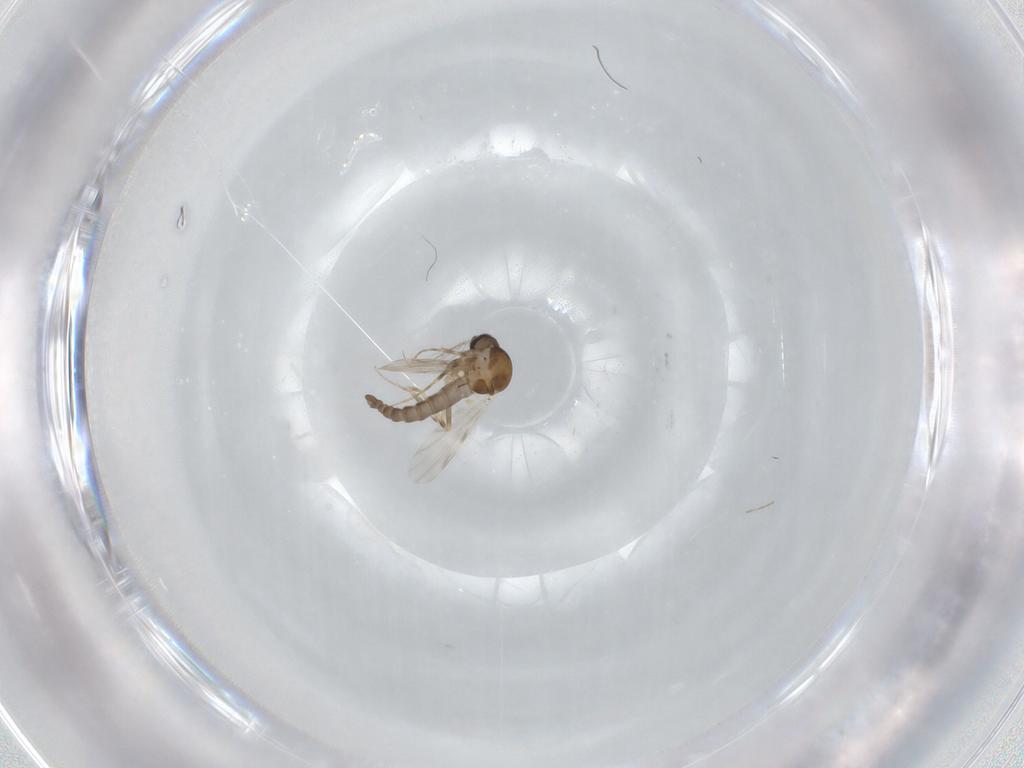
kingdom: Animalia
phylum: Arthropoda
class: Insecta
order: Diptera
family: Ceratopogonidae
